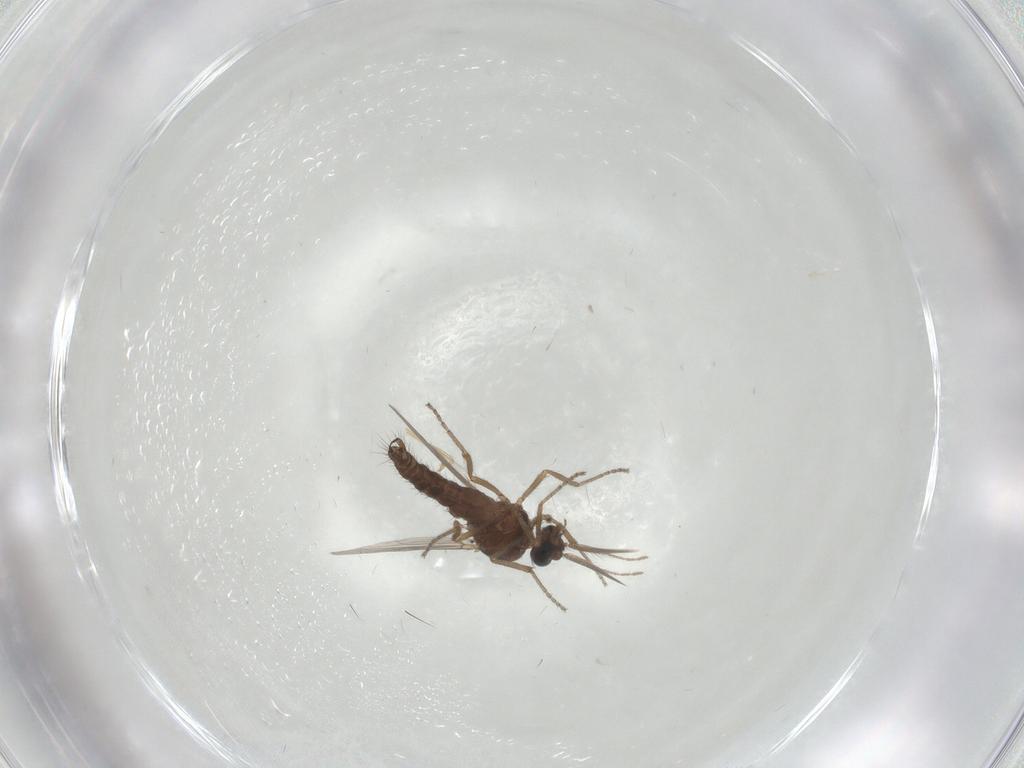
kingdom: Animalia
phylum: Arthropoda
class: Insecta
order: Diptera
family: Ceratopogonidae
